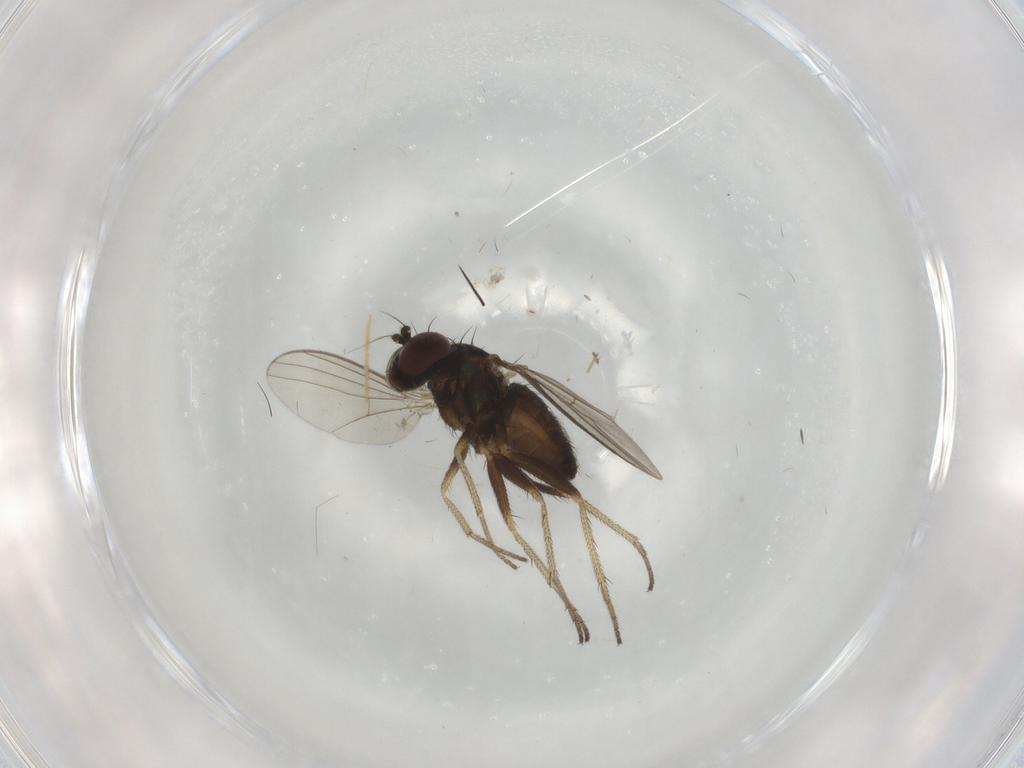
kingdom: Animalia
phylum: Arthropoda
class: Insecta
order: Diptera
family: Dolichopodidae
